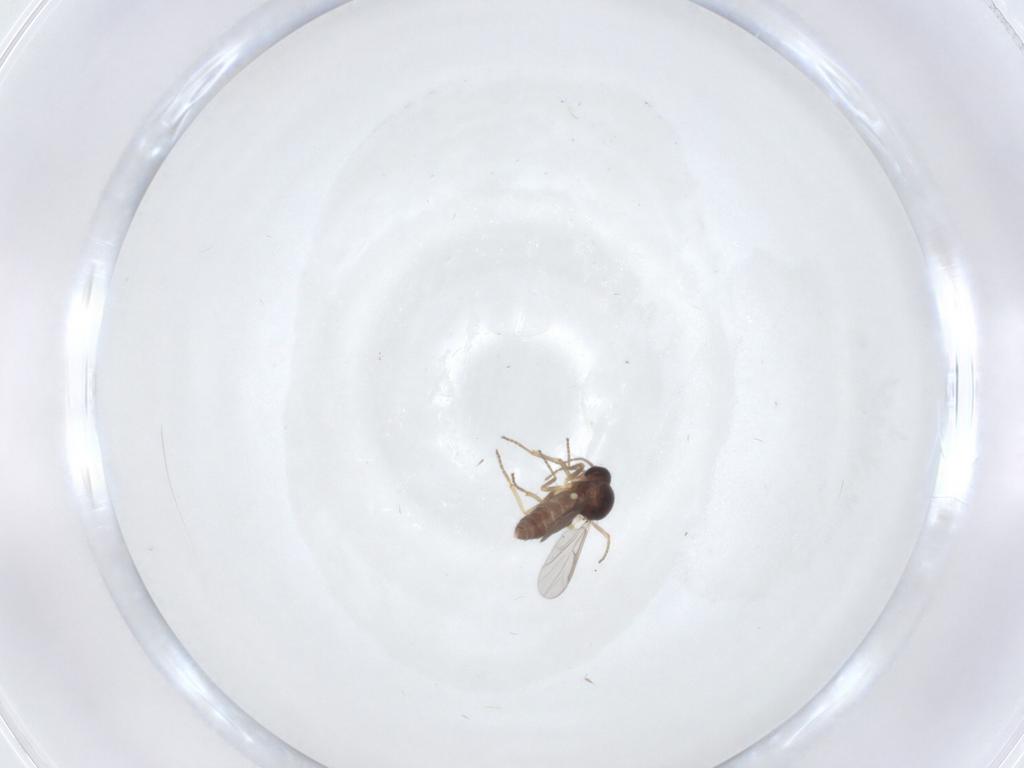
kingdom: Animalia
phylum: Arthropoda
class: Insecta
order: Diptera
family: Ceratopogonidae
